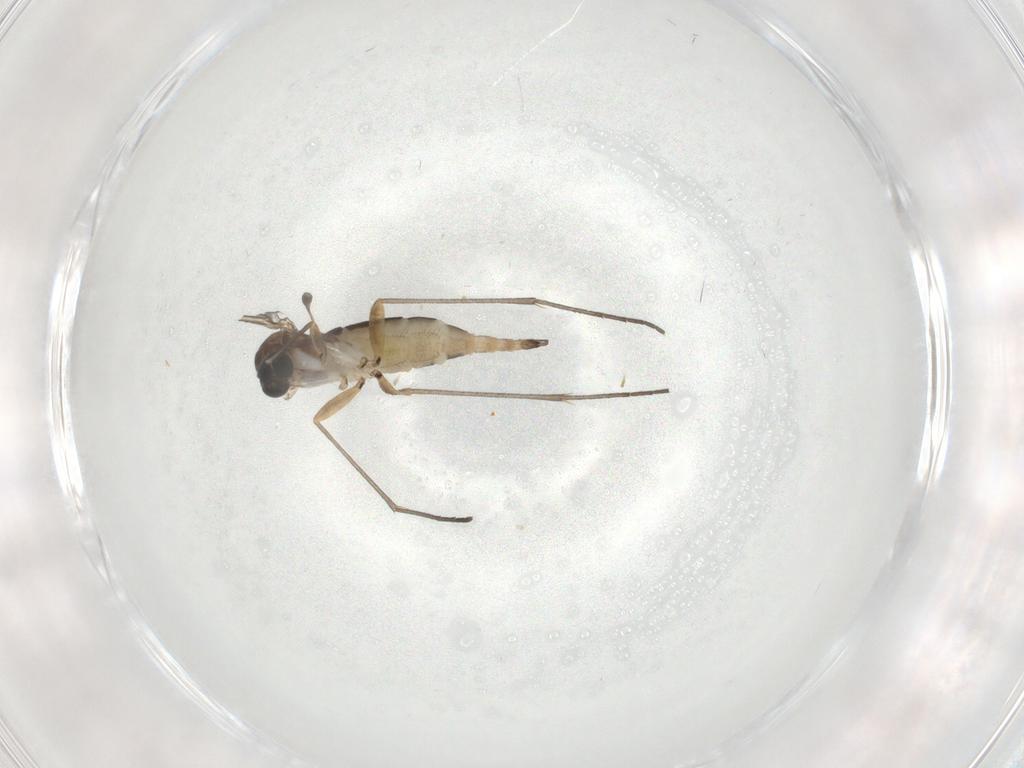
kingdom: Animalia
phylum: Arthropoda
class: Insecta
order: Diptera
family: Sciaridae
